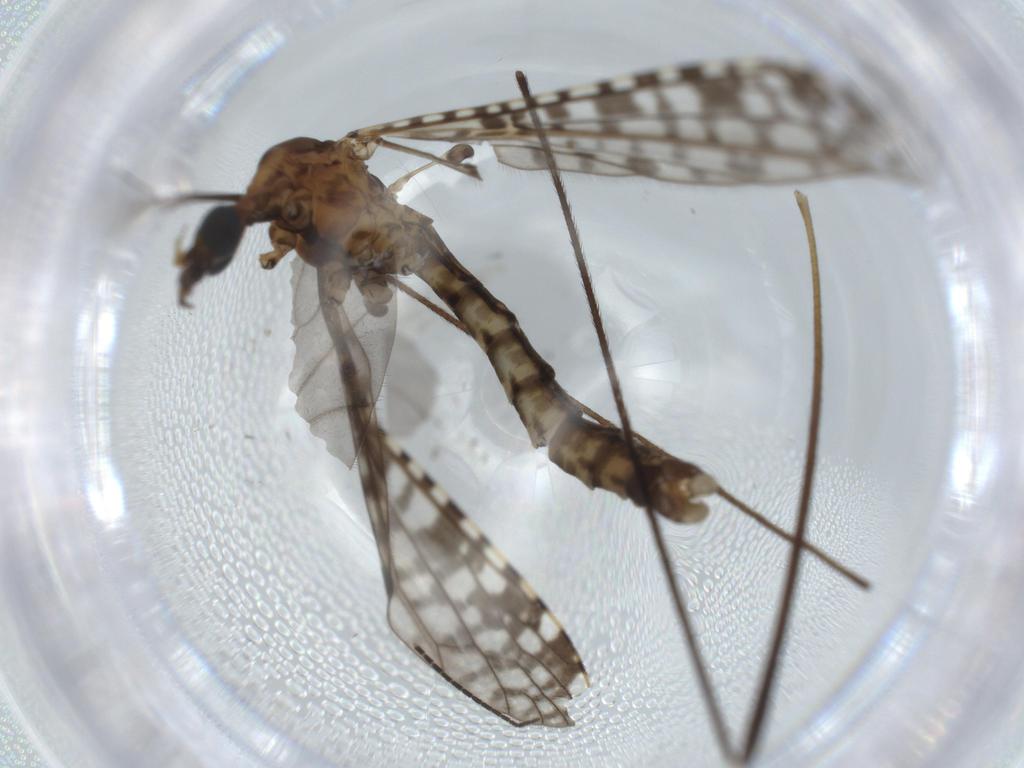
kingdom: Animalia
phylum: Arthropoda
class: Insecta
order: Diptera
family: Limoniidae
